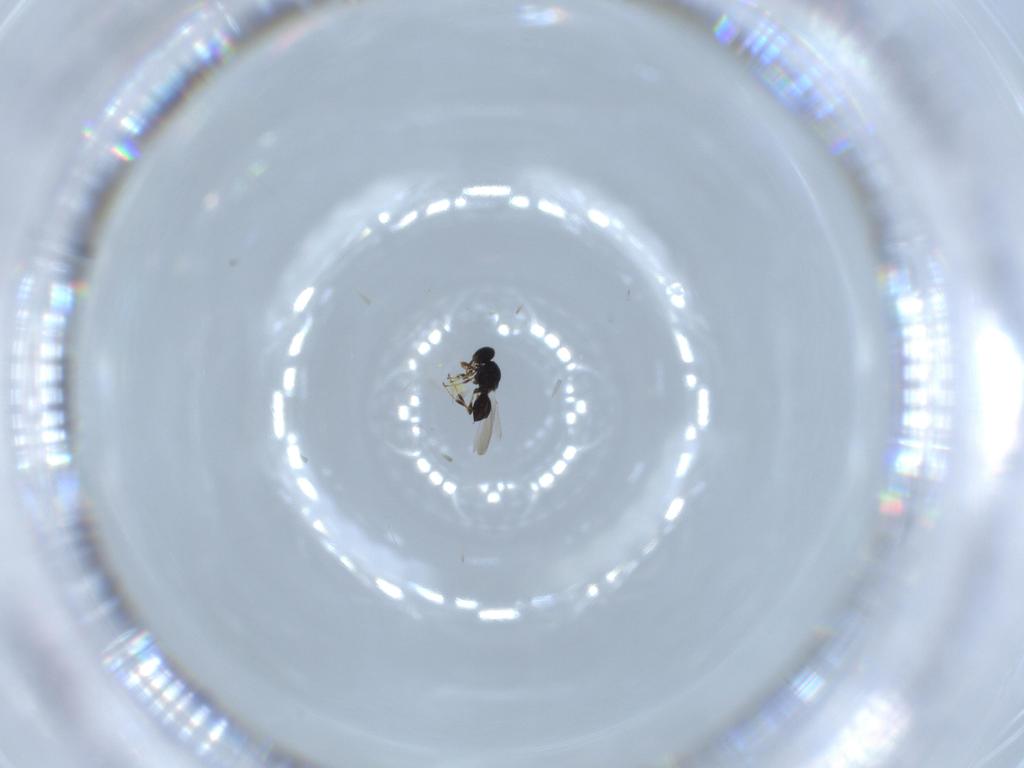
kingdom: Animalia
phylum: Arthropoda
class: Insecta
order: Hymenoptera
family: Platygastridae
